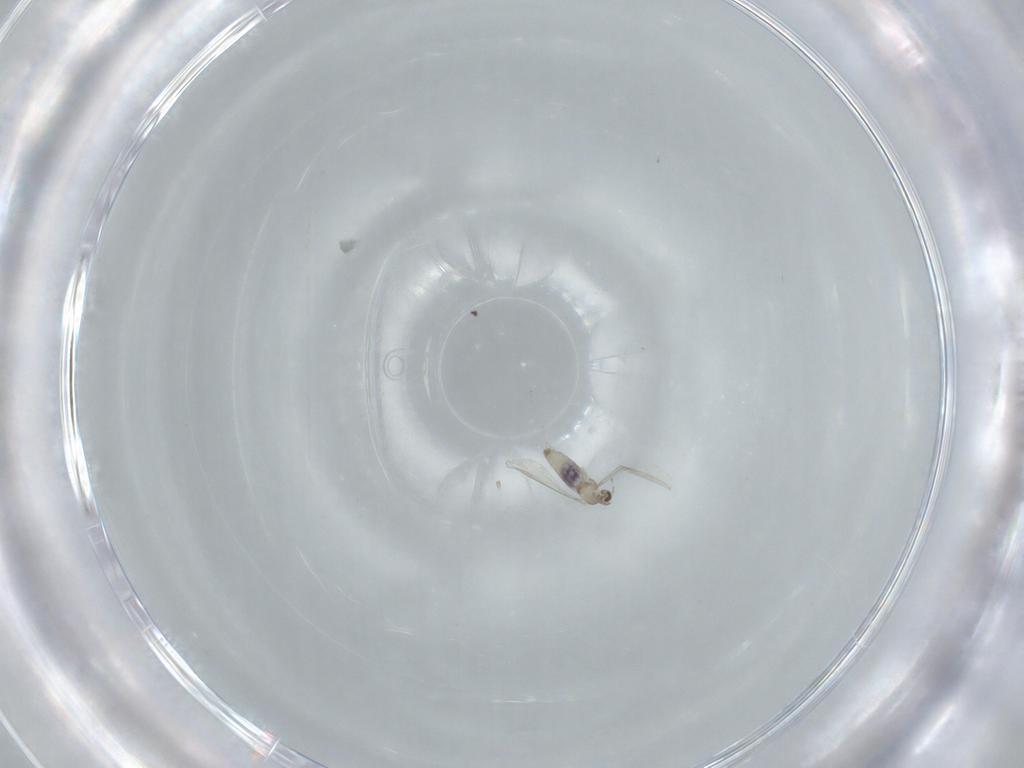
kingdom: Animalia
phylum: Arthropoda
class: Insecta
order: Diptera
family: Cecidomyiidae
